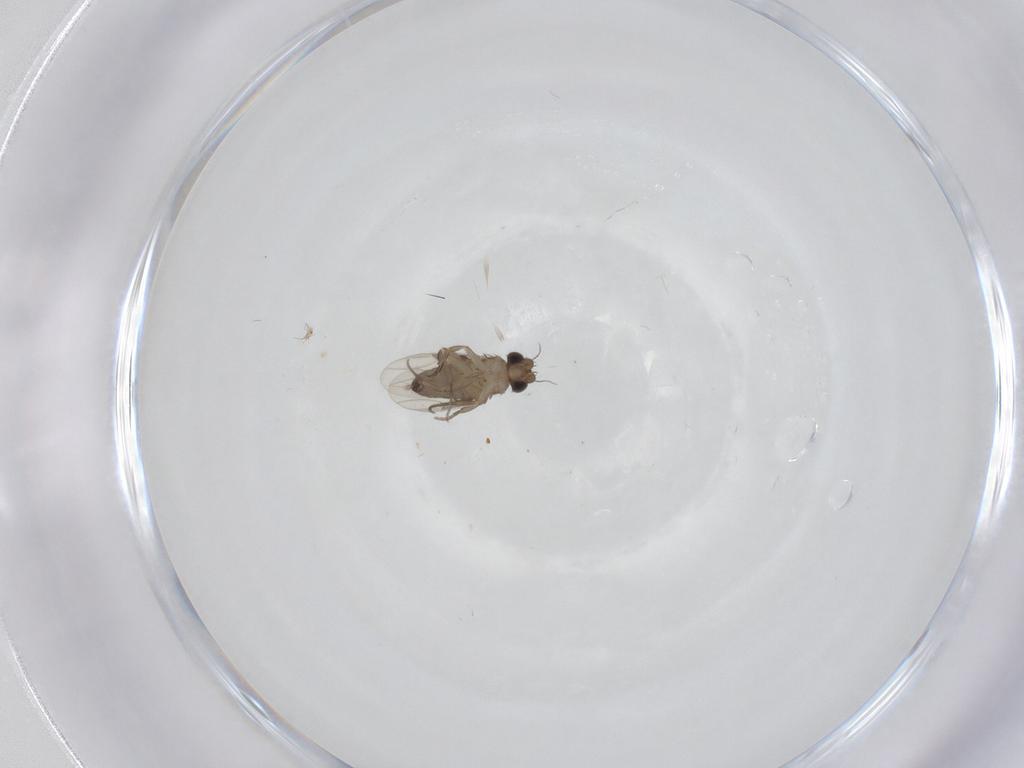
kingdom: Animalia
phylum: Arthropoda
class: Insecta
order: Diptera
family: Phoridae
